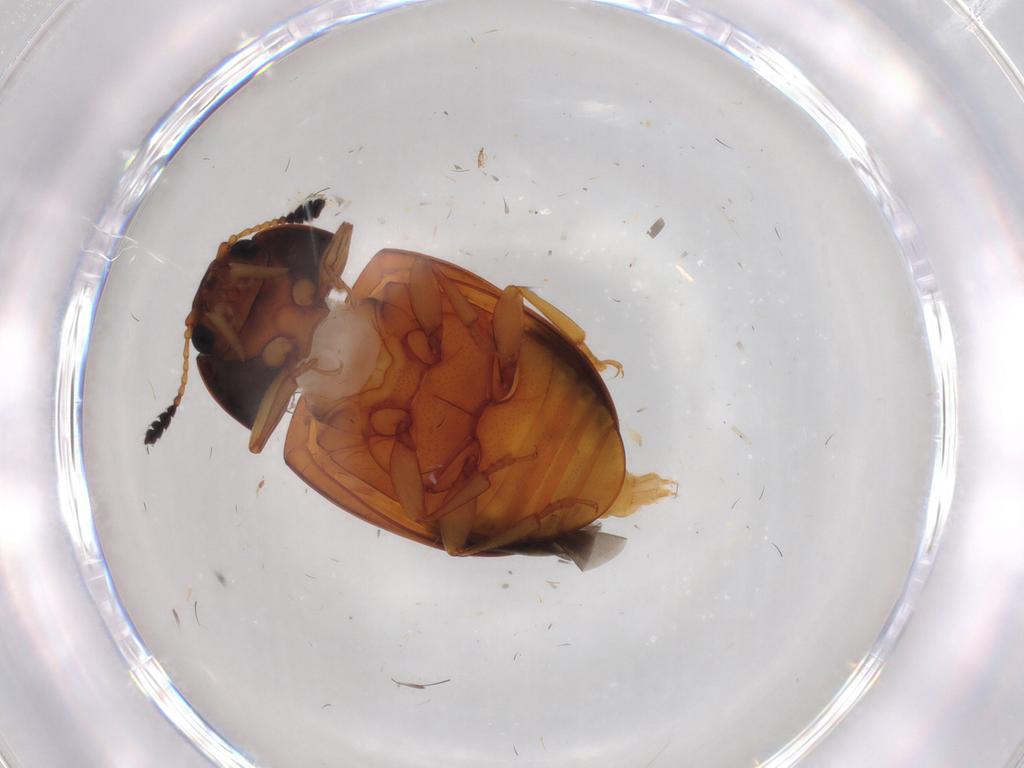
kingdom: Animalia
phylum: Arthropoda
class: Insecta
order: Coleoptera
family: Erotylidae
